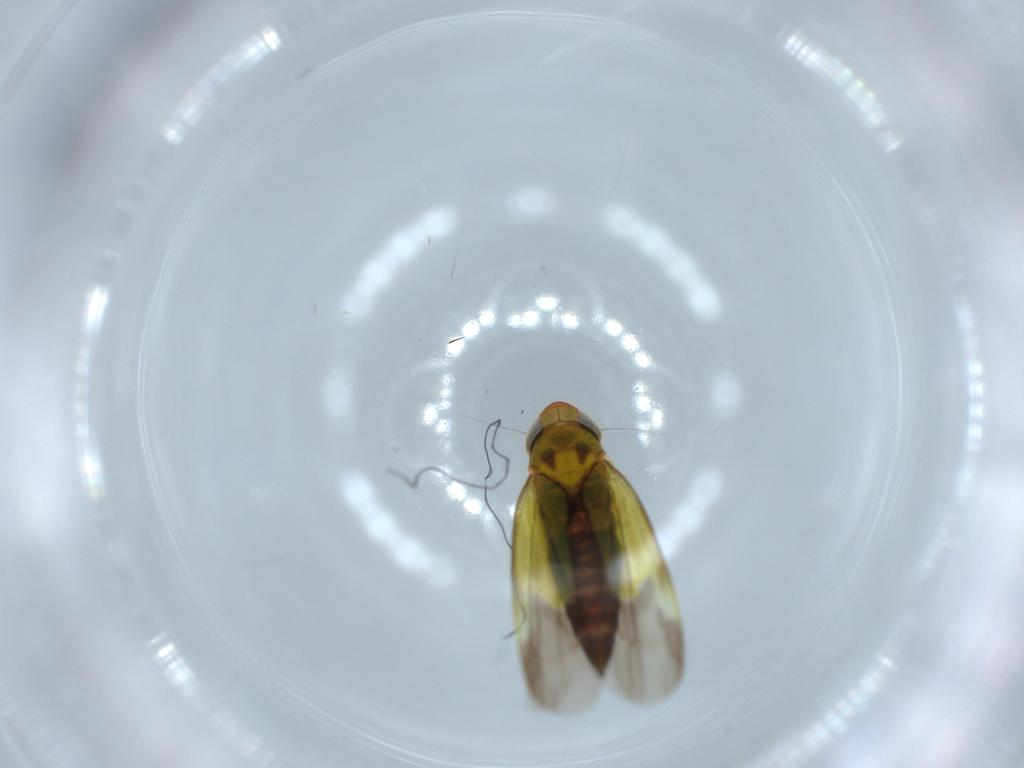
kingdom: Animalia
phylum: Arthropoda
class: Insecta
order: Hemiptera
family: Cicadellidae
